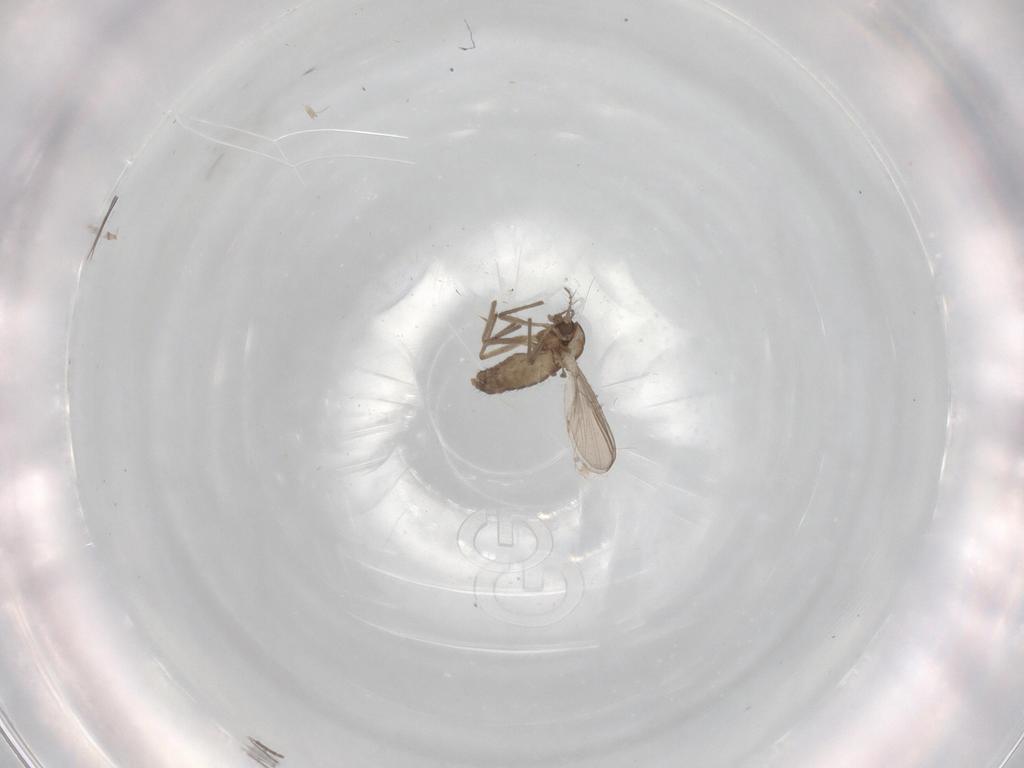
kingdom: Animalia
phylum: Arthropoda
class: Insecta
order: Diptera
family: Chironomidae
